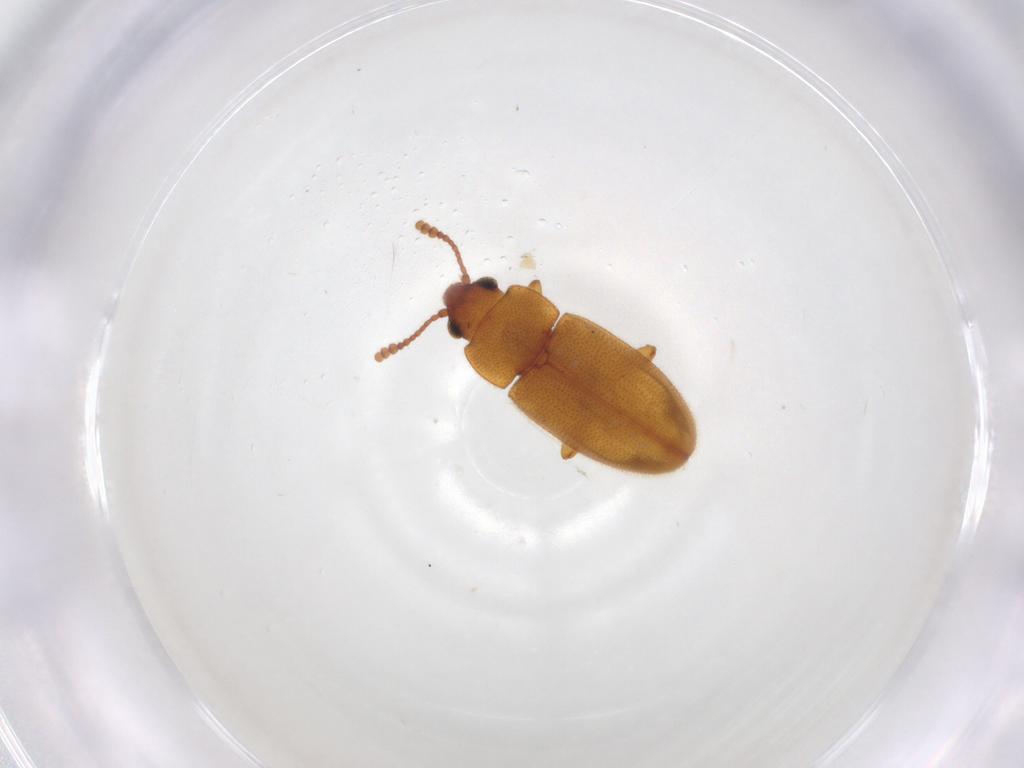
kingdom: Animalia
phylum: Arthropoda
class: Insecta
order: Coleoptera
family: Erotylidae
